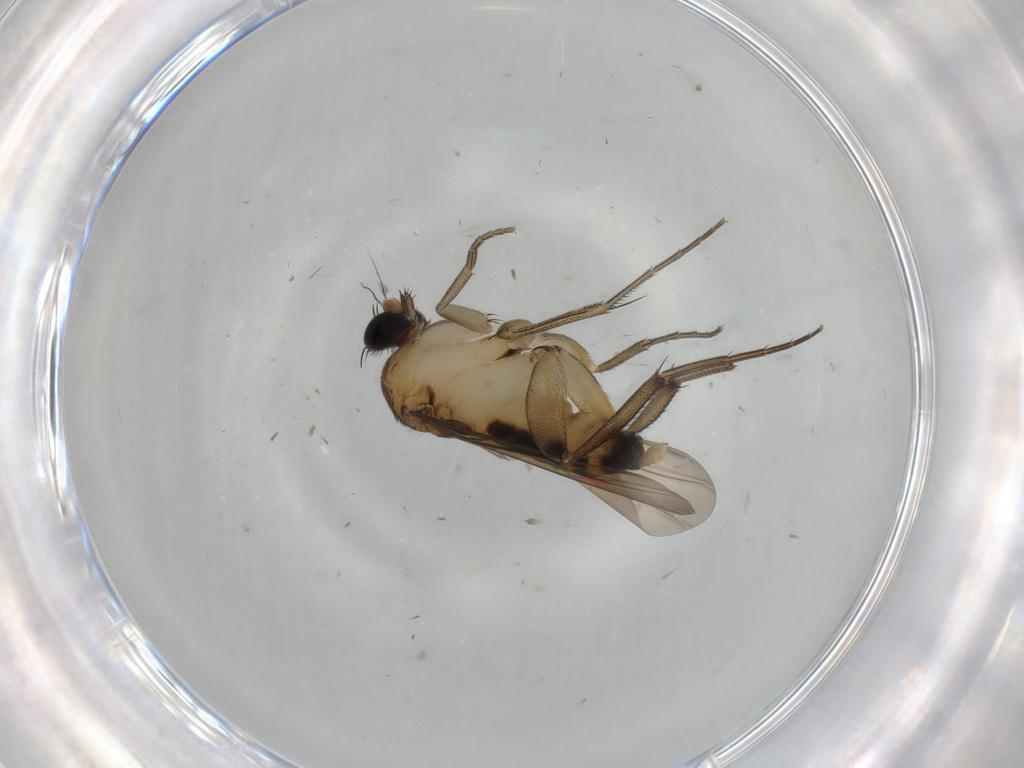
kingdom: Animalia
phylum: Arthropoda
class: Insecta
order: Diptera
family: Phoridae
